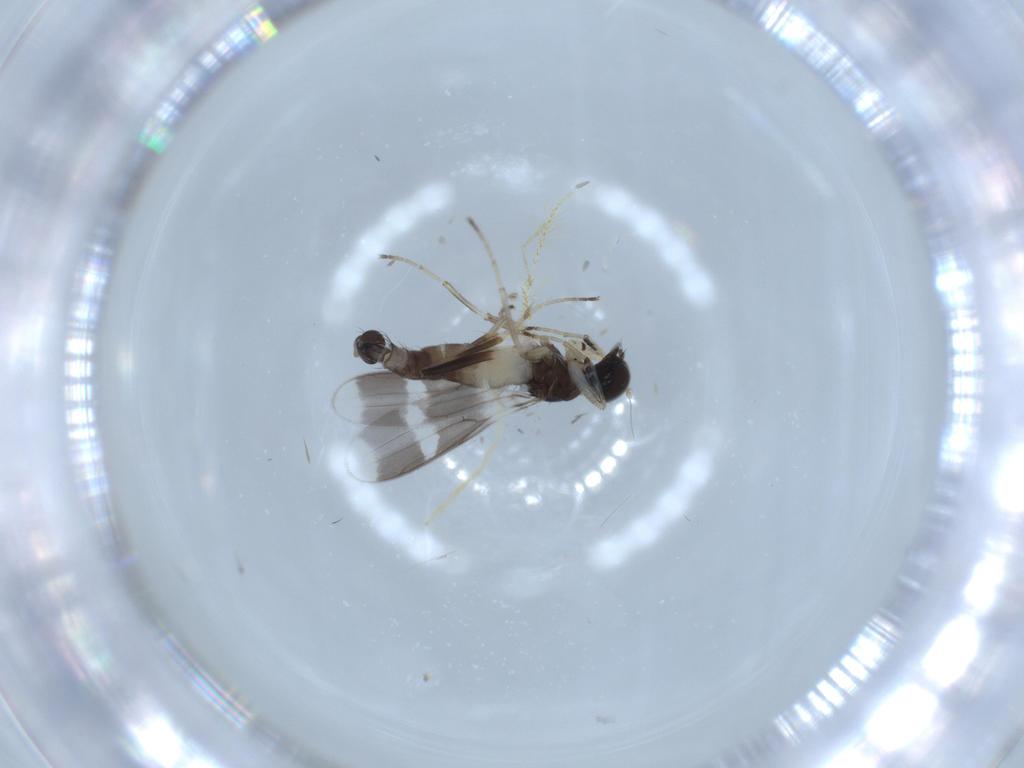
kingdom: Animalia
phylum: Arthropoda
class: Insecta
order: Diptera
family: Hybotidae
